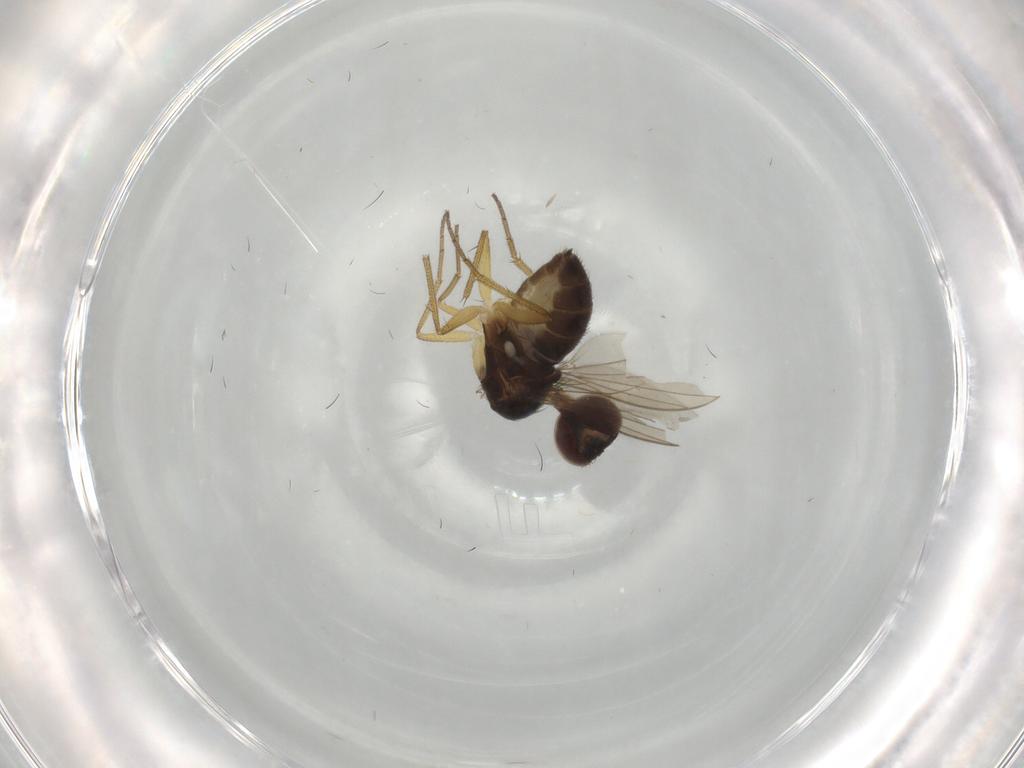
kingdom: Animalia
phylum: Arthropoda
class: Insecta
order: Diptera
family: Dolichopodidae
